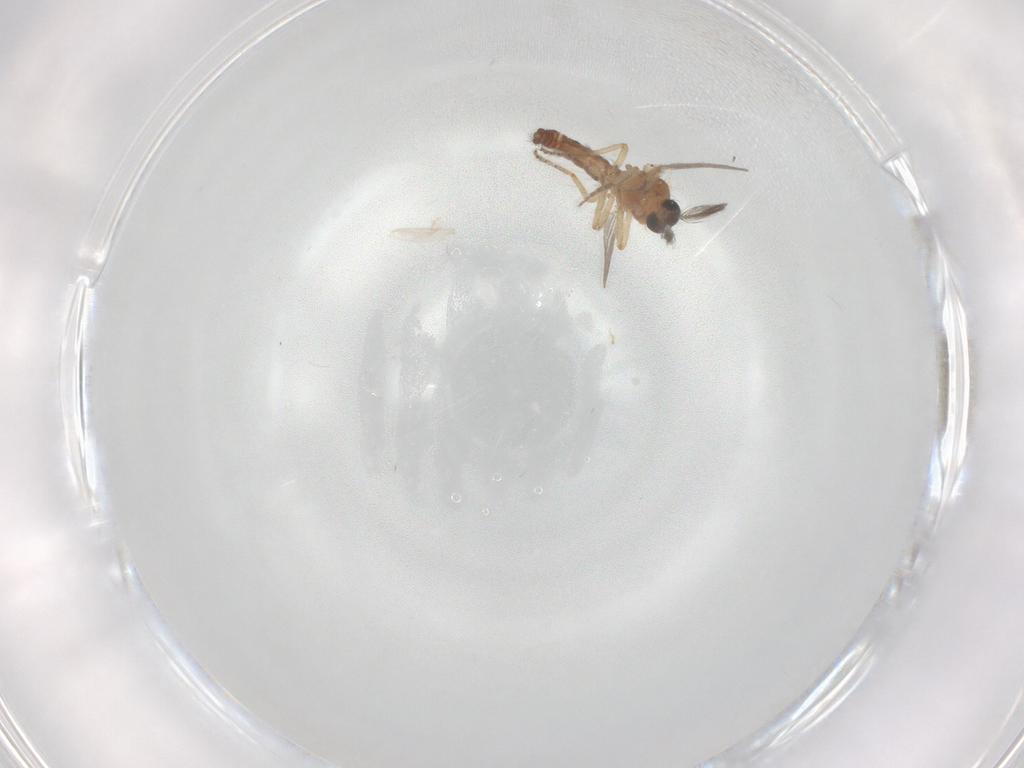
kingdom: Animalia
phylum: Arthropoda
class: Insecta
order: Diptera
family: Ceratopogonidae
